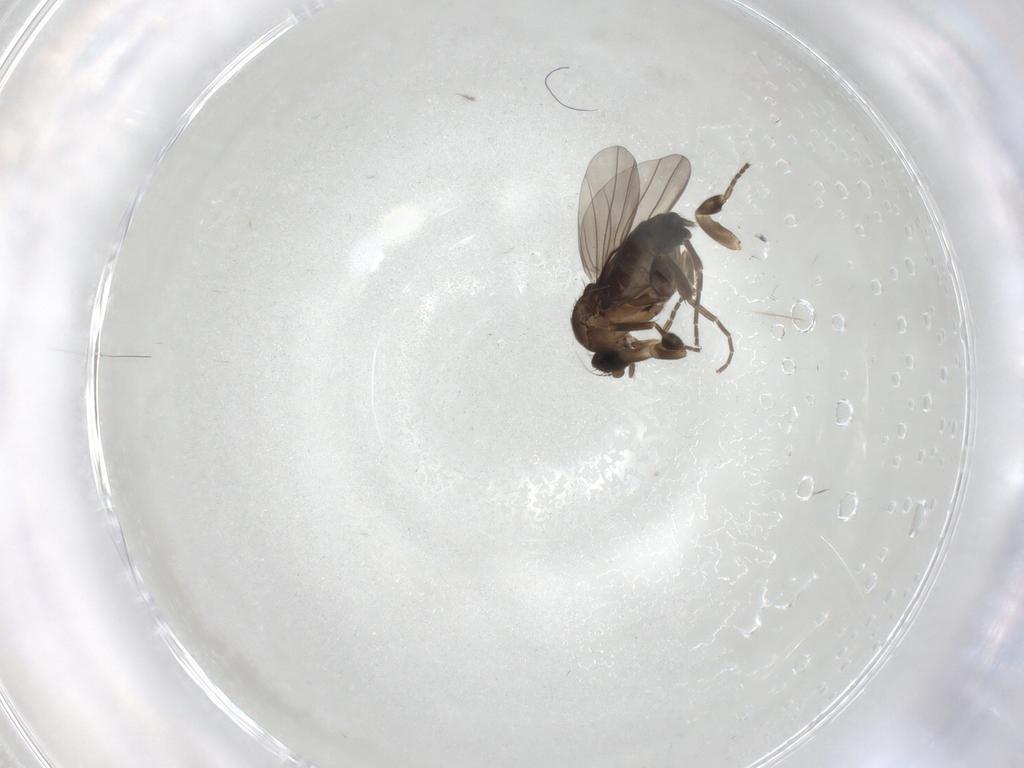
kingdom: Animalia
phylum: Arthropoda
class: Insecta
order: Diptera
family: Phoridae
